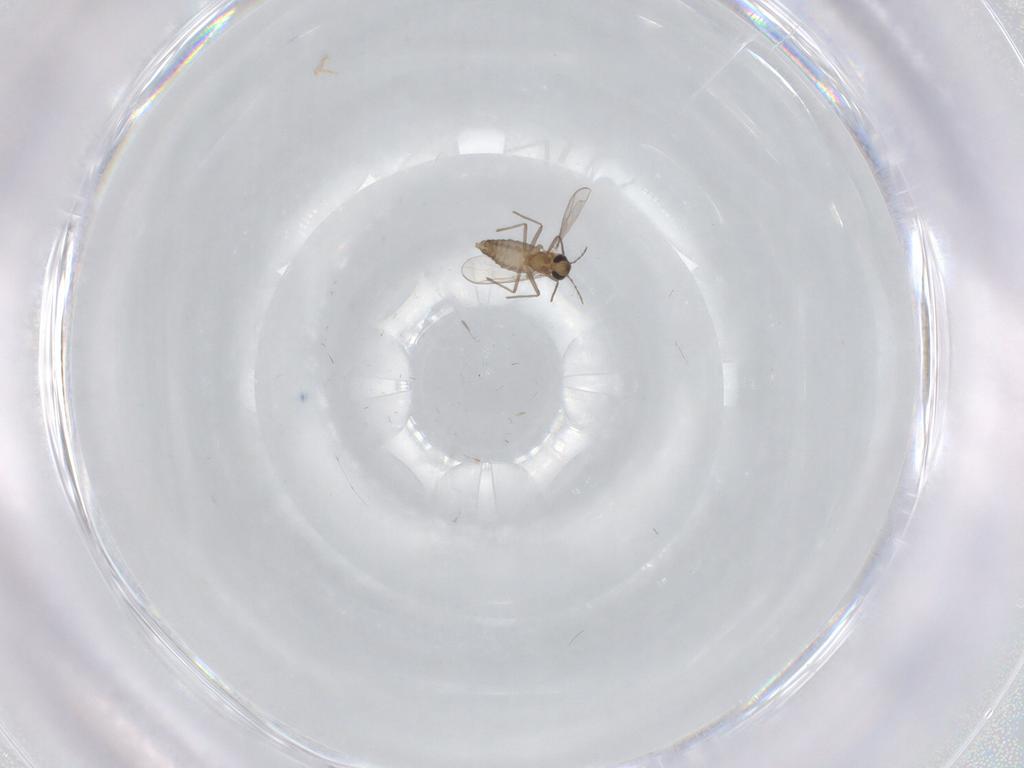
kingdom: Animalia
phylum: Arthropoda
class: Insecta
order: Diptera
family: Chironomidae
